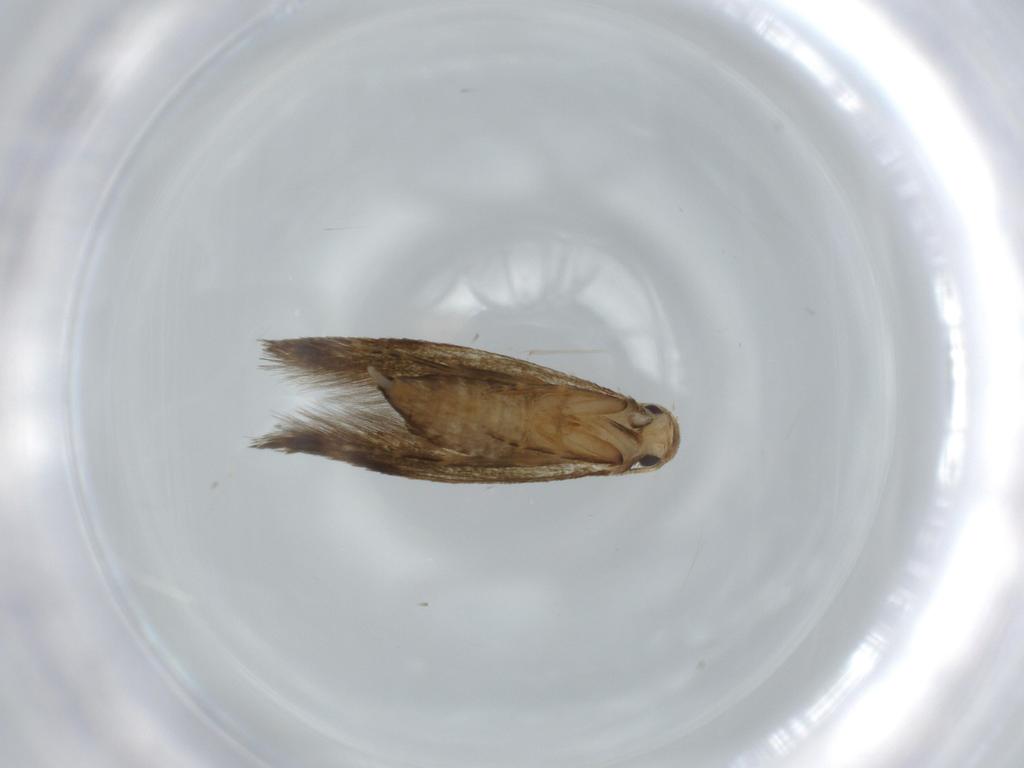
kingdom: Animalia
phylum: Arthropoda
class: Insecta
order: Lepidoptera
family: Tineidae
